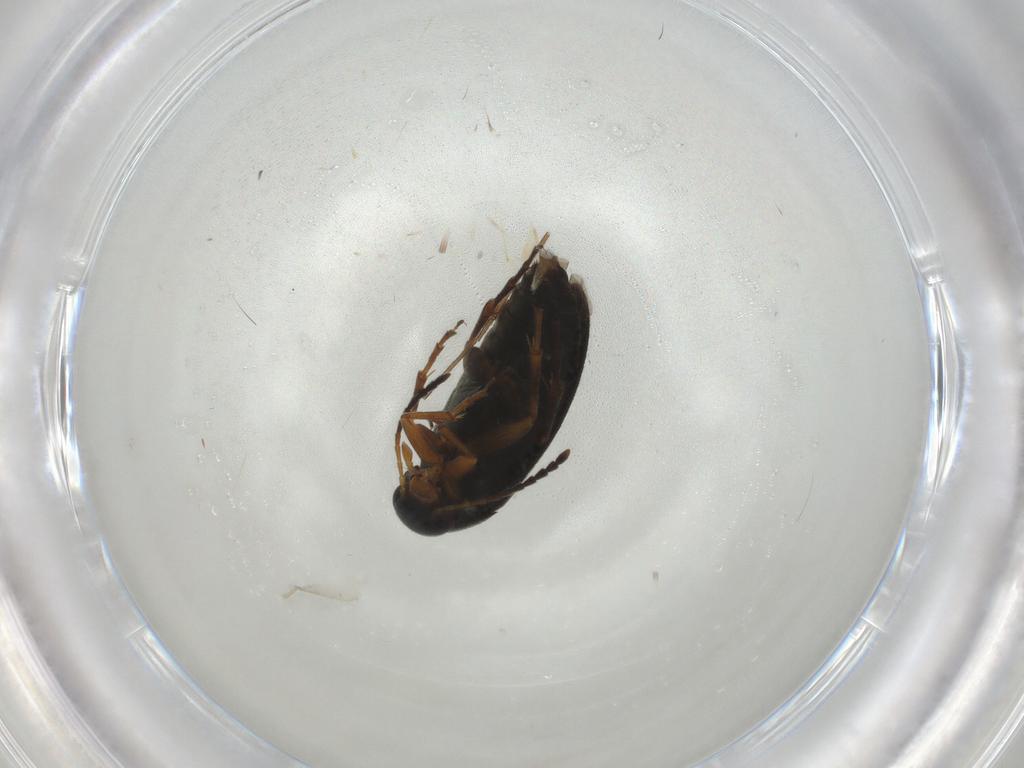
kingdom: Animalia
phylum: Arthropoda
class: Insecta
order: Coleoptera
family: Scraptiidae
